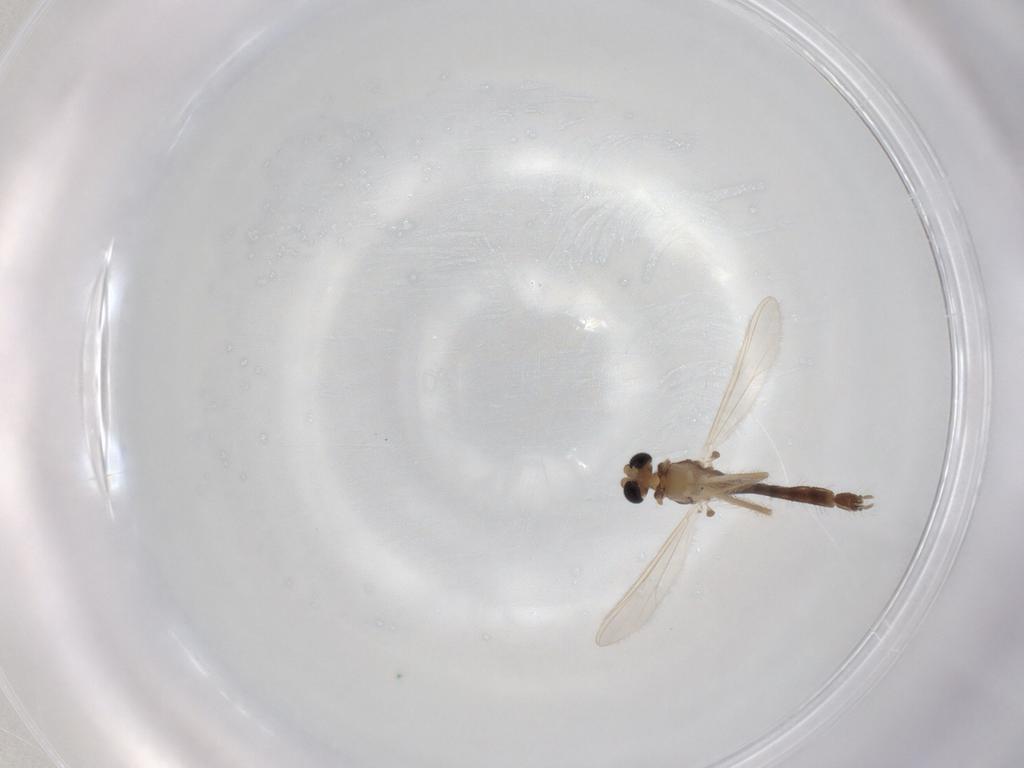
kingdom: Animalia
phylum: Arthropoda
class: Insecta
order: Diptera
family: Chironomidae
